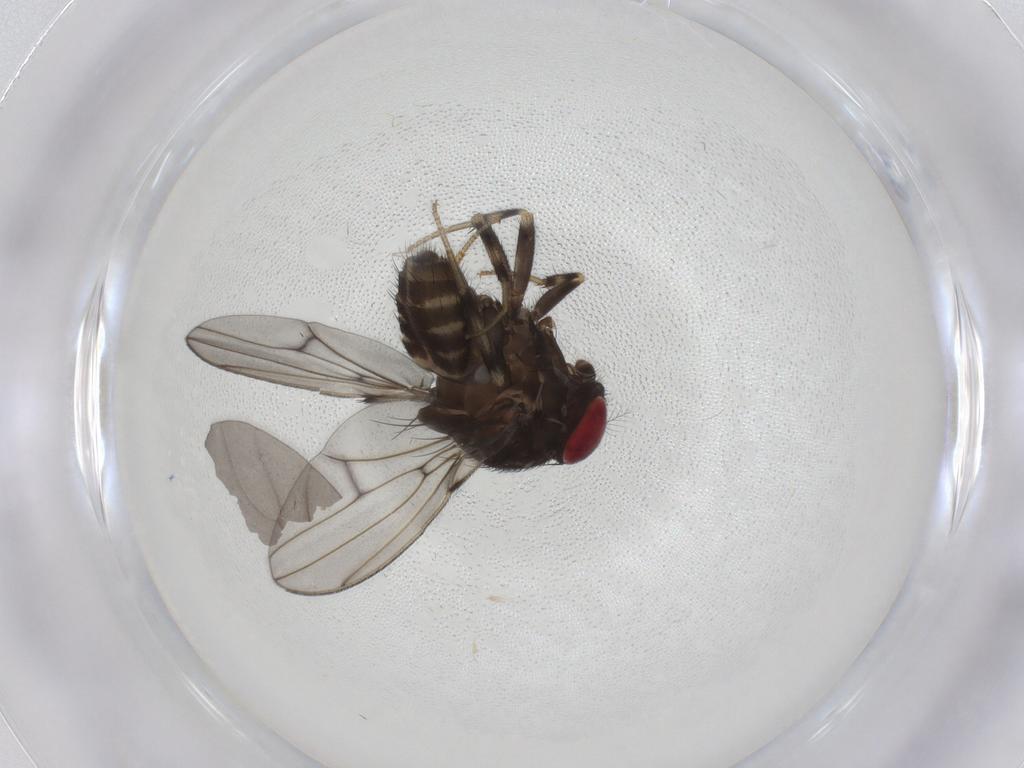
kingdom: Animalia
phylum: Arthropoda
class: Insecta
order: Diptera
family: Drosophilidae
